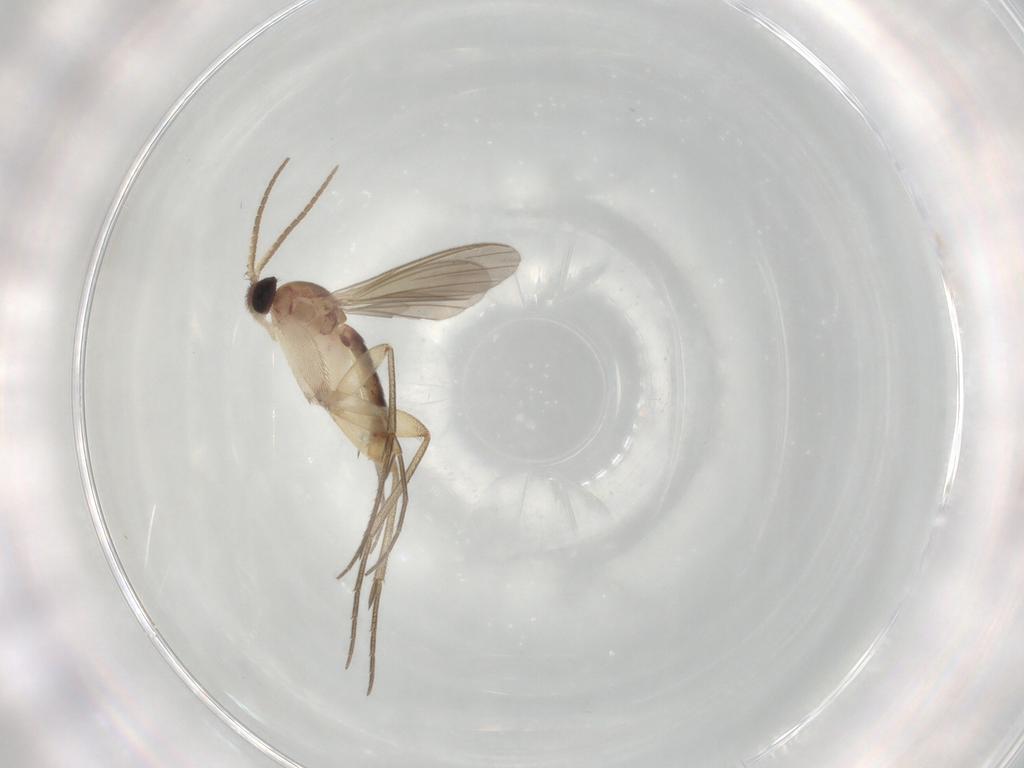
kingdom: Animalia
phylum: Arthropoda
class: Insecta
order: Diptera
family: Mycetophilidae
